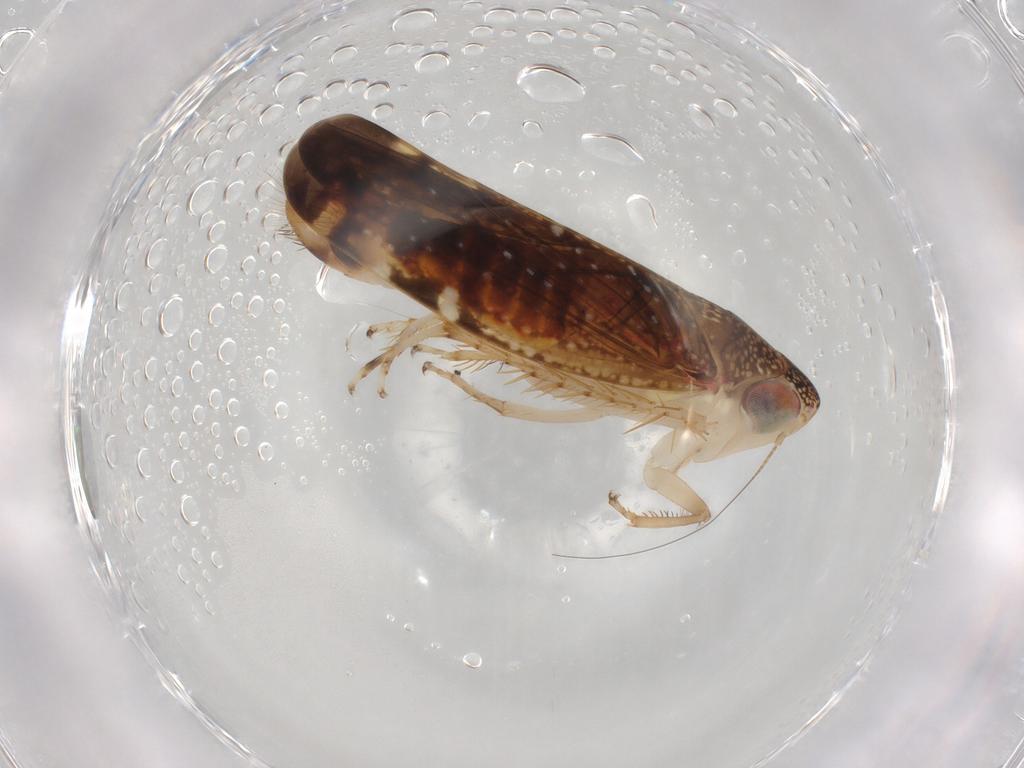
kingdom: Animalia
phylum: Arthropoda
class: Insecta
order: Hemiptera
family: Cicadellidae
